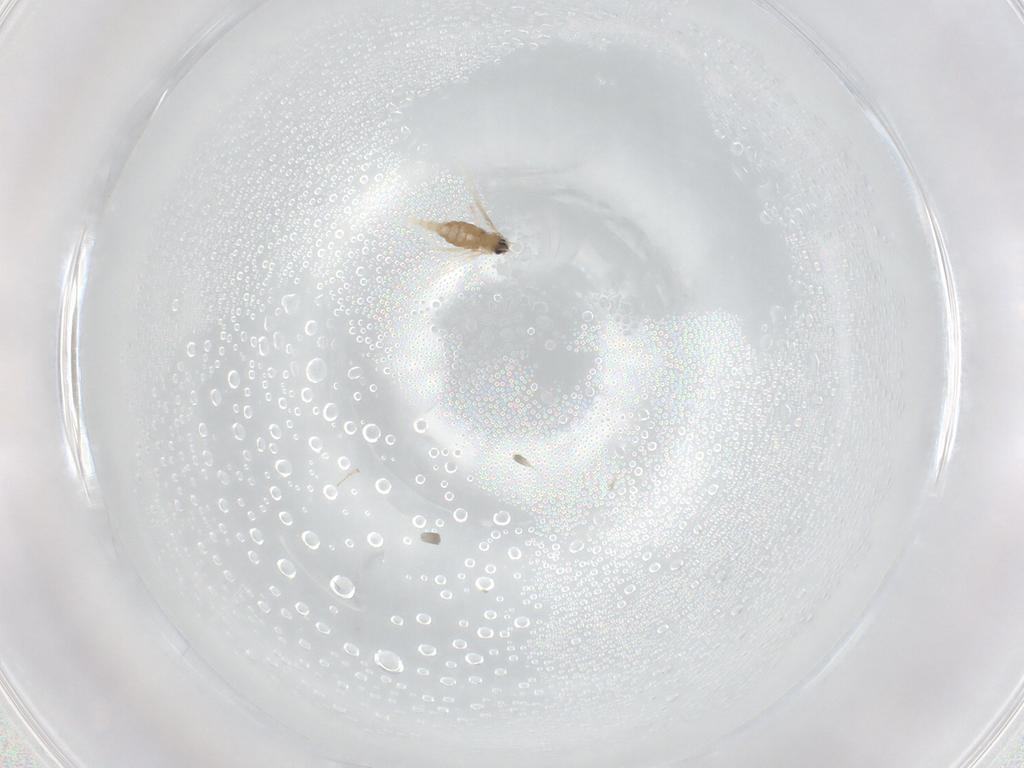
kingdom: Animalia
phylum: Arthropoda
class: Insecta
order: Diptera
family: Cecidomyiidae
